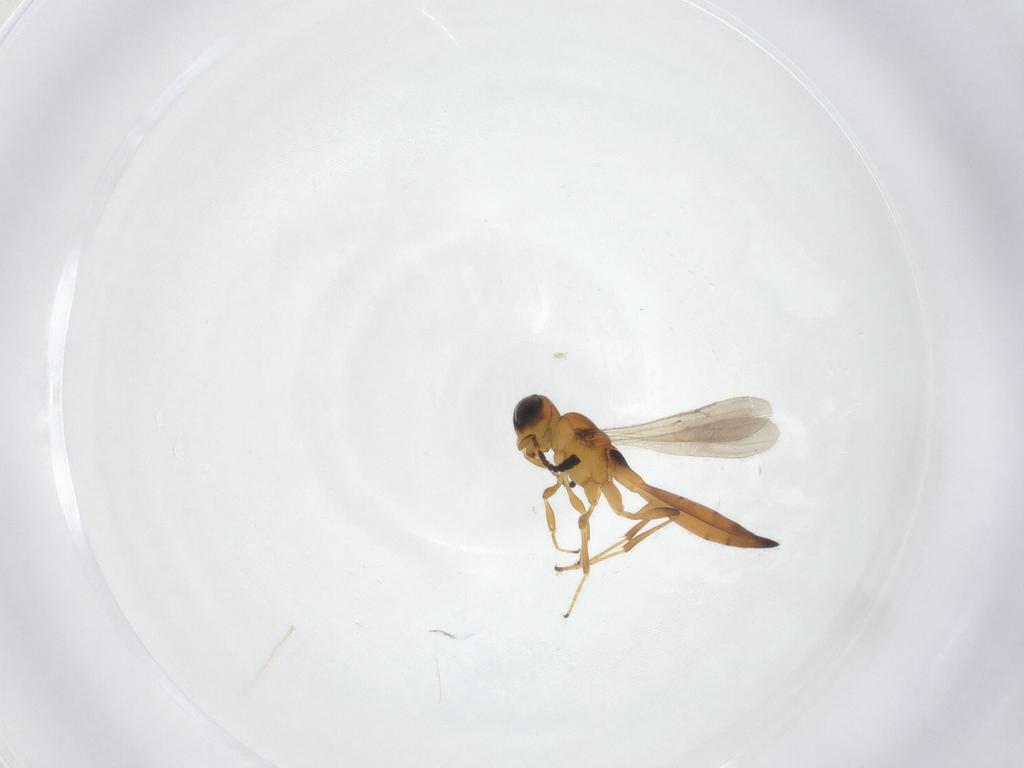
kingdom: Animalia
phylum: Arthropoda
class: Insecta
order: Hymenoptera
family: Scelionidae
